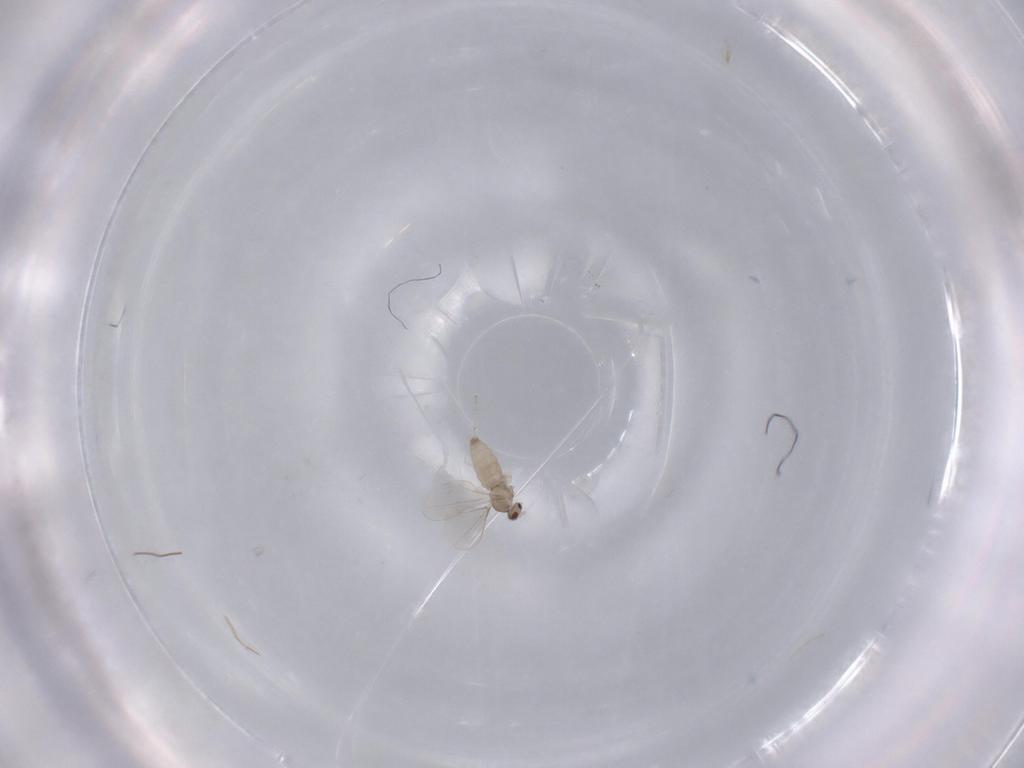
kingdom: Animalia
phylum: Arthropoda
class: Insecta
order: Diptera
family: Cecidomyiidae
